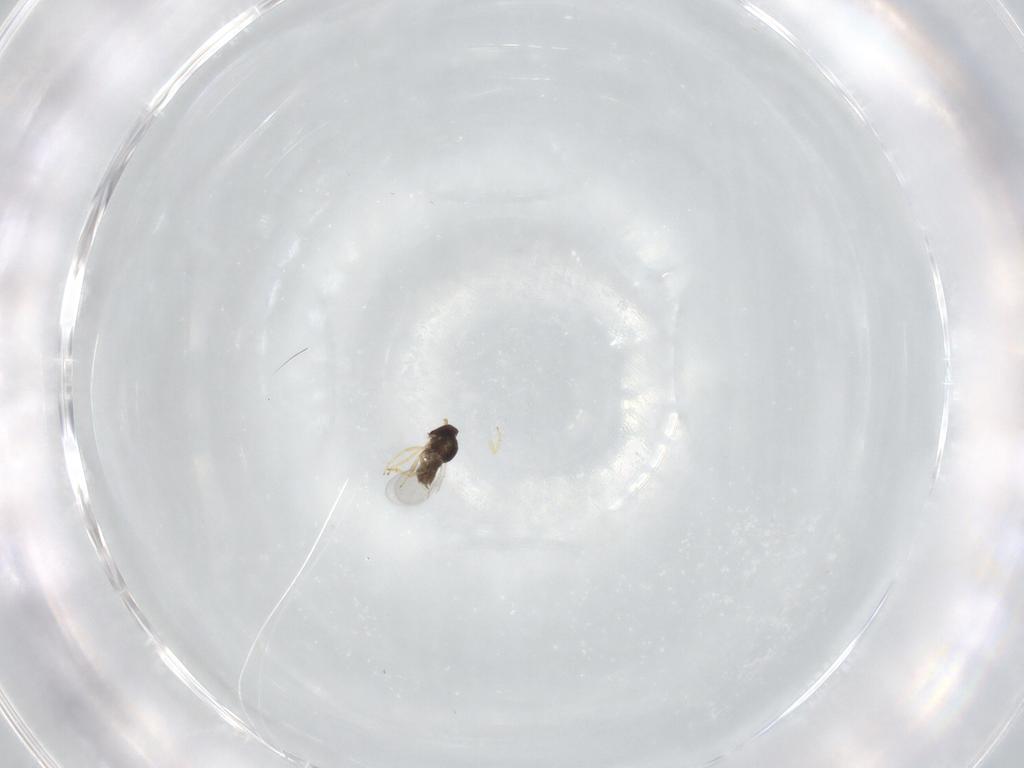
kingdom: Animalia
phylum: Arthropoda
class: Insecta
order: Hymenoptera
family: Encyrtidae
